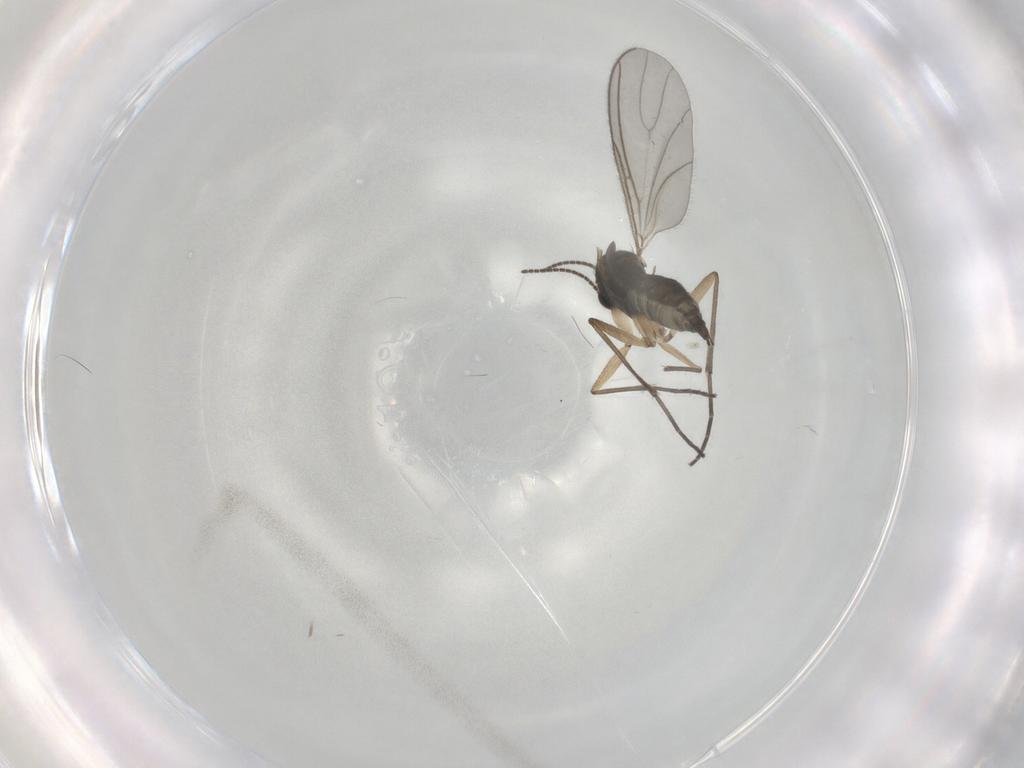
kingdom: Animalia
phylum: Arthropoda
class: Insecta
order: Diptera
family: Sciaridae
